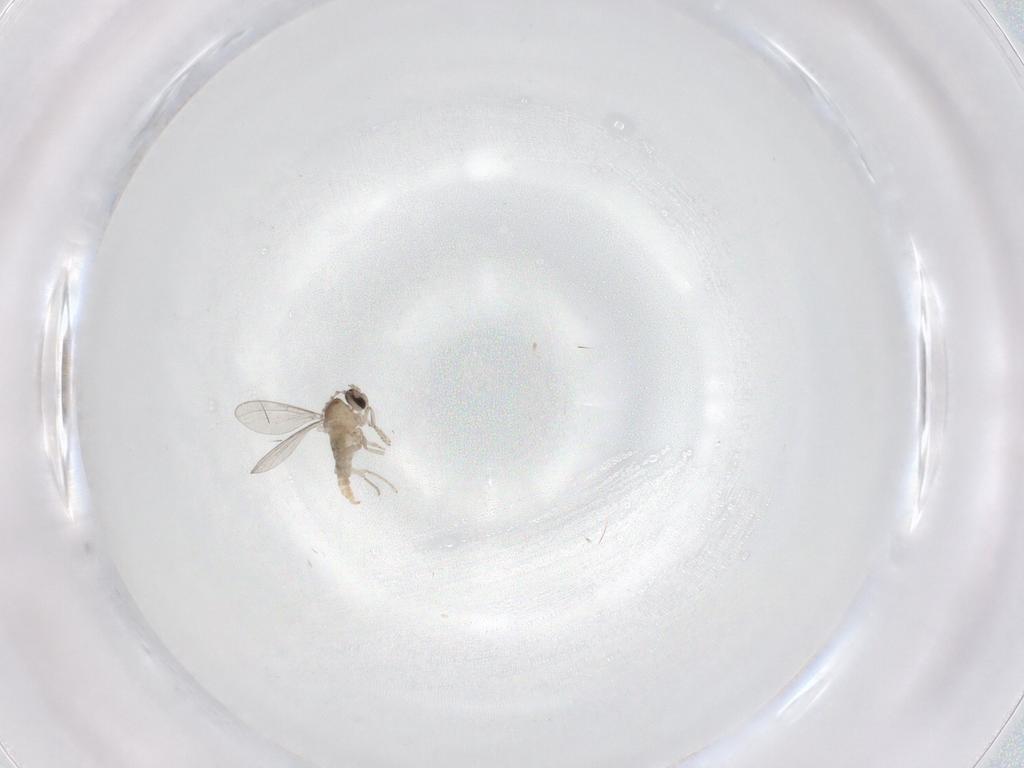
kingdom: Animalia
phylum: Arthropoda
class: Insecta
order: Diptera
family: Cecidomyiidae
